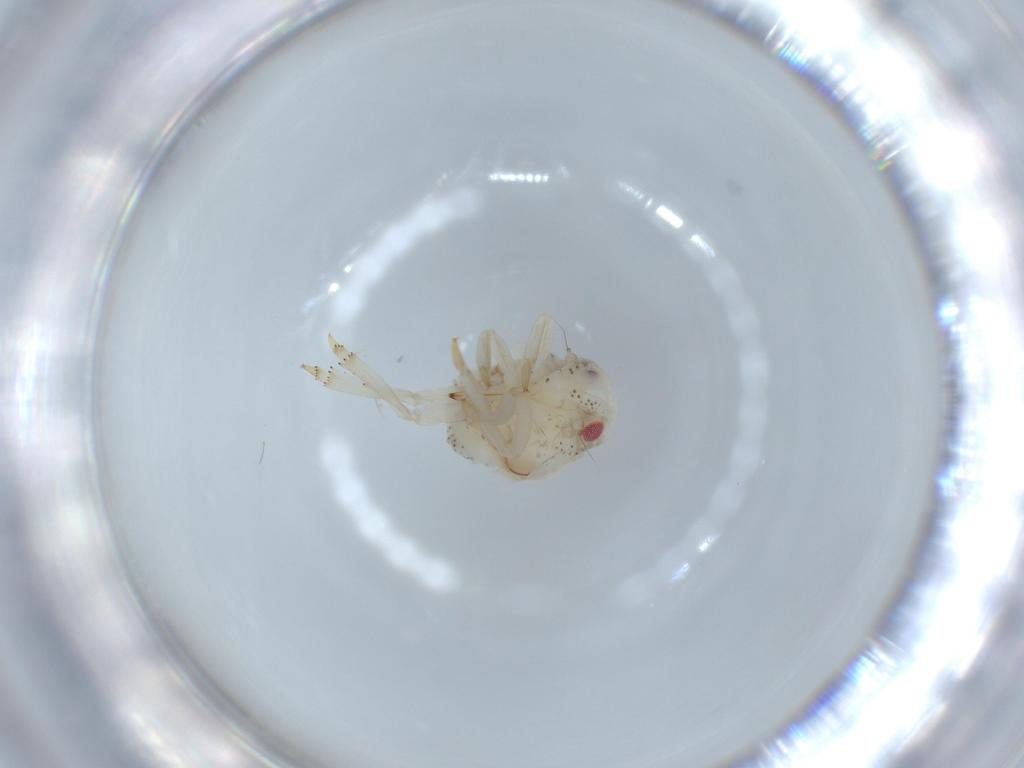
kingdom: Animalia
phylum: Arthropoda
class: Insecta
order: Hemiptera
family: Acanaloniidae
